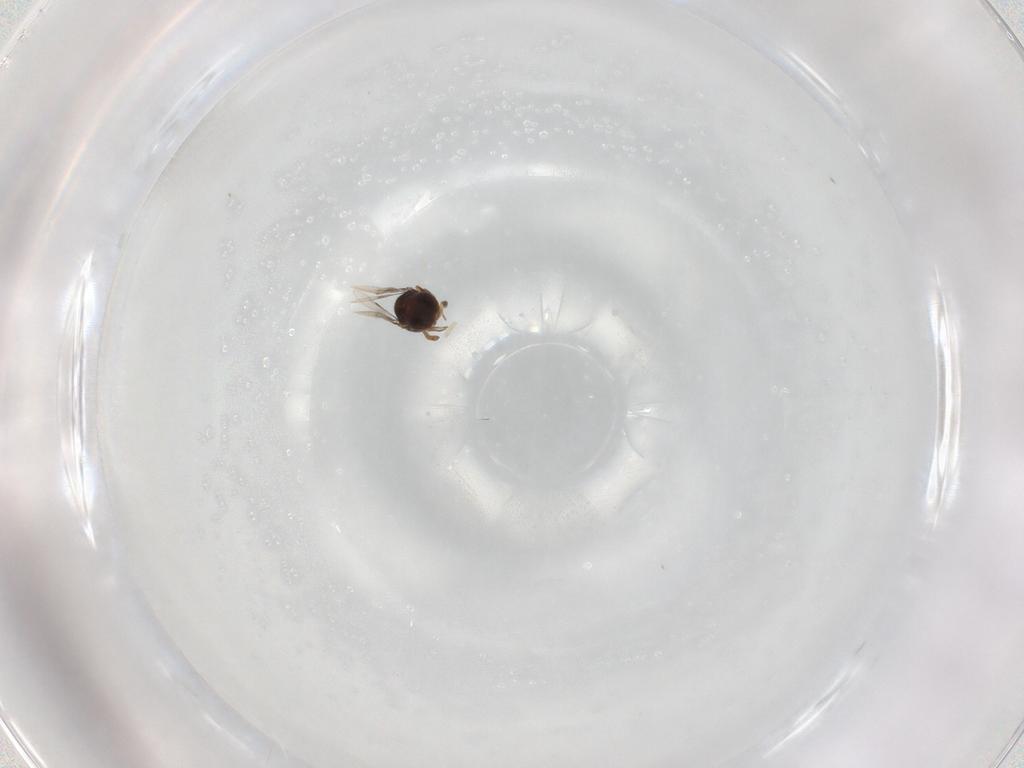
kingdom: Animalia
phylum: Arthropoda
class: Insecta
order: Hymenoptera
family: Scelionidae
